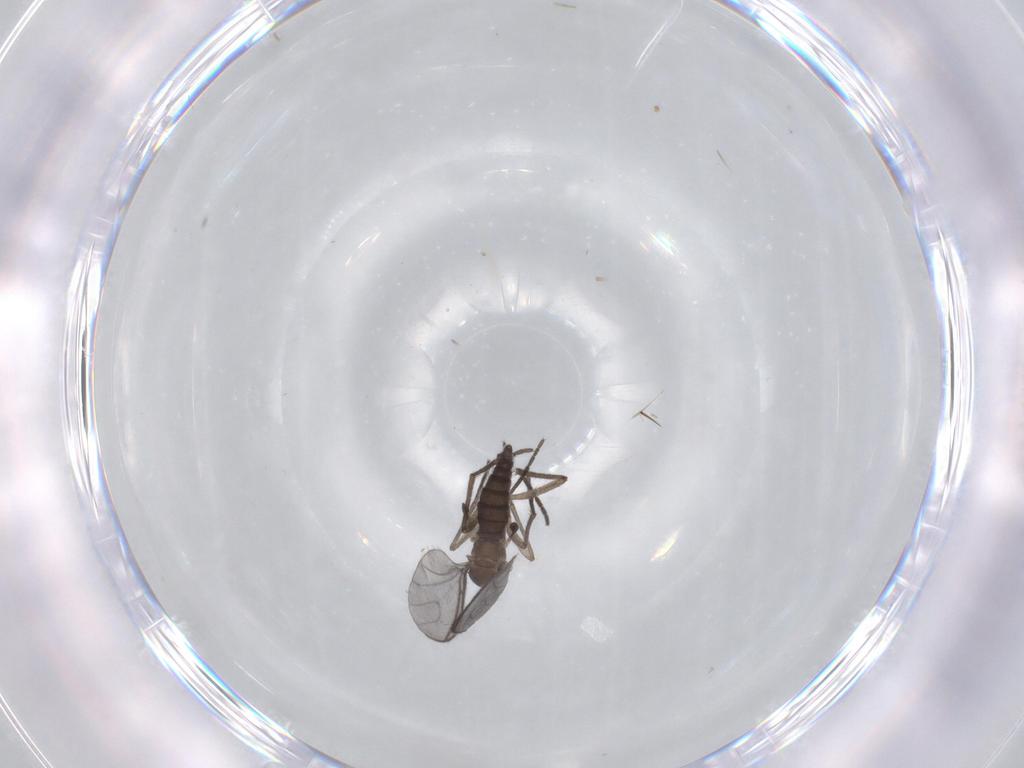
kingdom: Animalia
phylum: Arthropoda
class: Insecta
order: Diptera
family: Sciaridae
